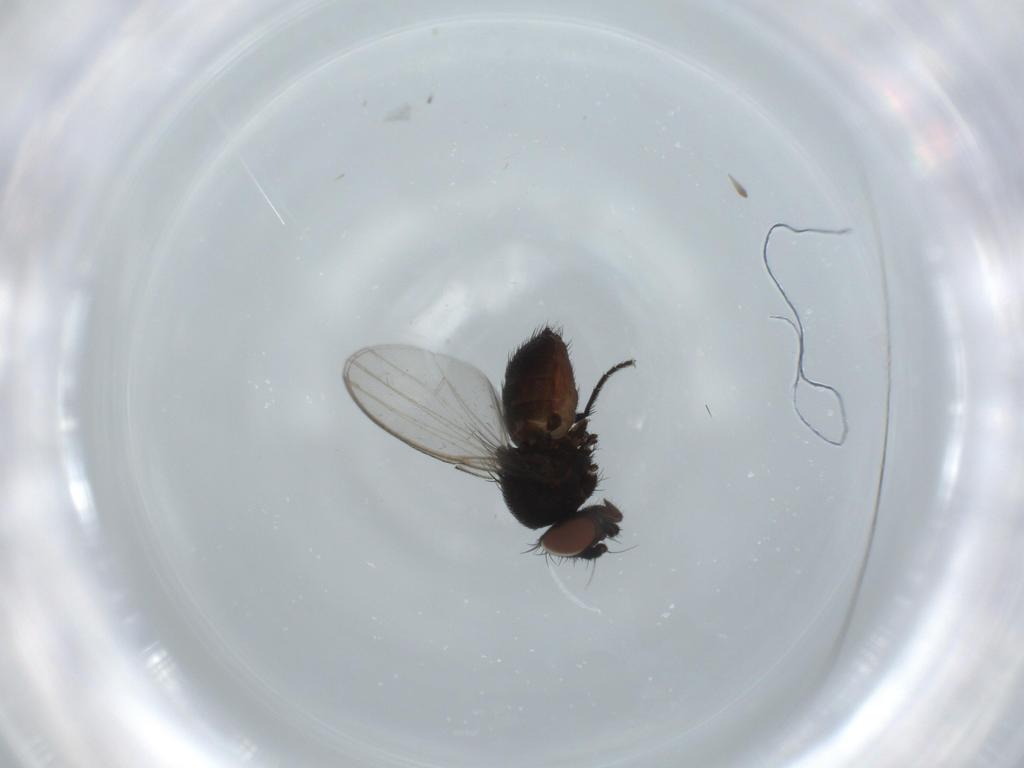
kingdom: Animalia
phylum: Arthropoda
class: Insecta
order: Diptera
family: Milichiidae
